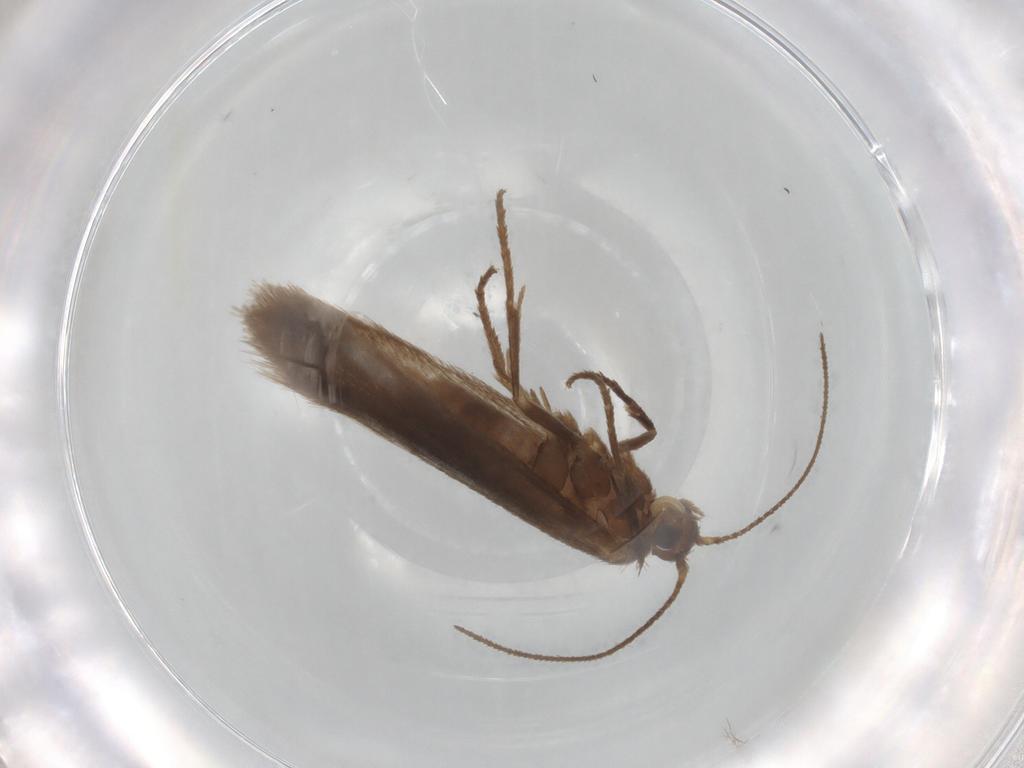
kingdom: Animalia
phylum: Arthropoda
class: Insecta
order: Lepidoptera
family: Limacodidae
